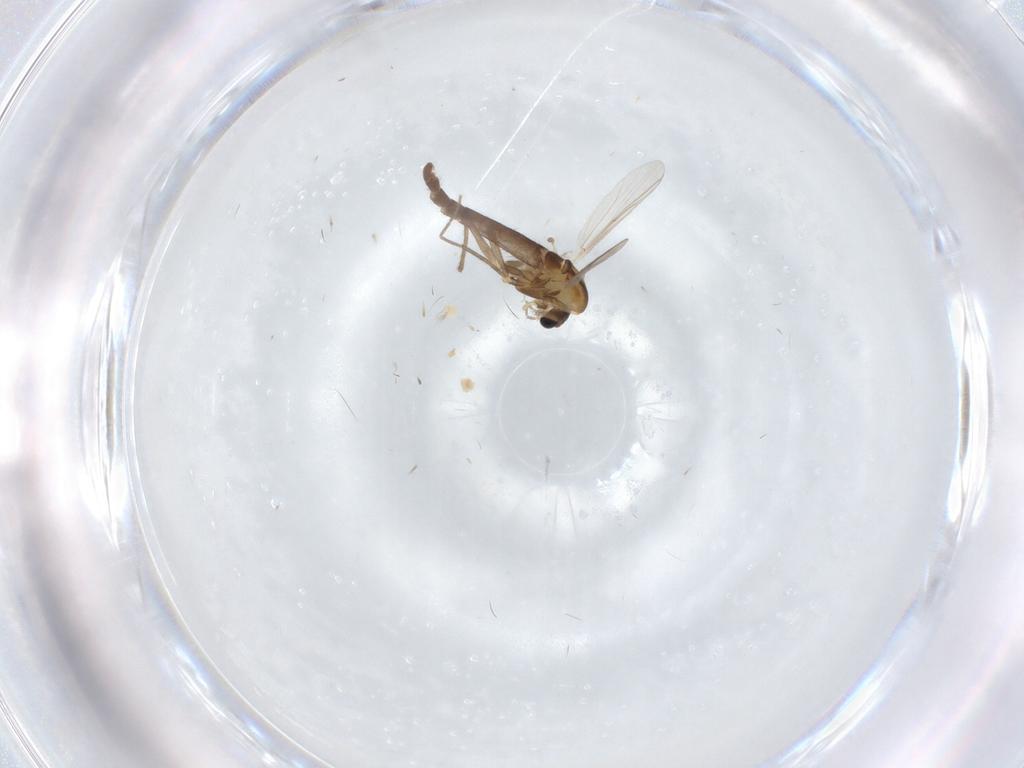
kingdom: Animalia
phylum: Arthropoda
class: Insecta
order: Diptera
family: Chironomidae
